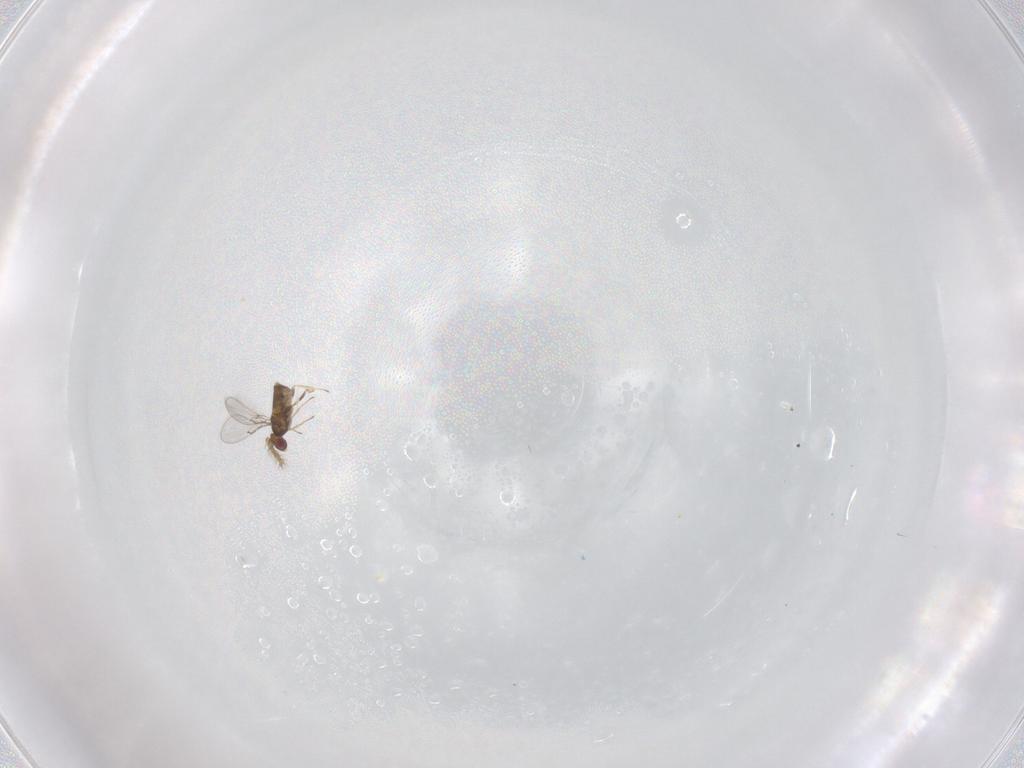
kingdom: Animalia
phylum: Arthropoda
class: Insecta
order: Hymenoptera
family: Trichogrammatidae
